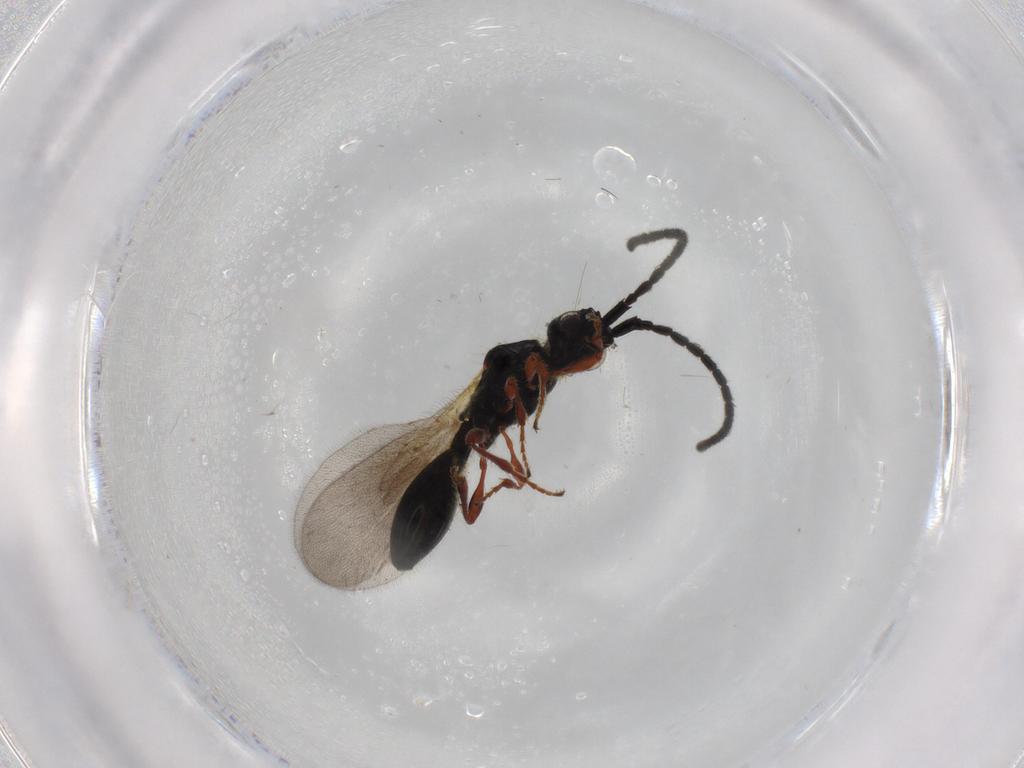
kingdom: Animalia
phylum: Arthropoda
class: Insecta
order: Hymenoptera
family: Diapriidae
